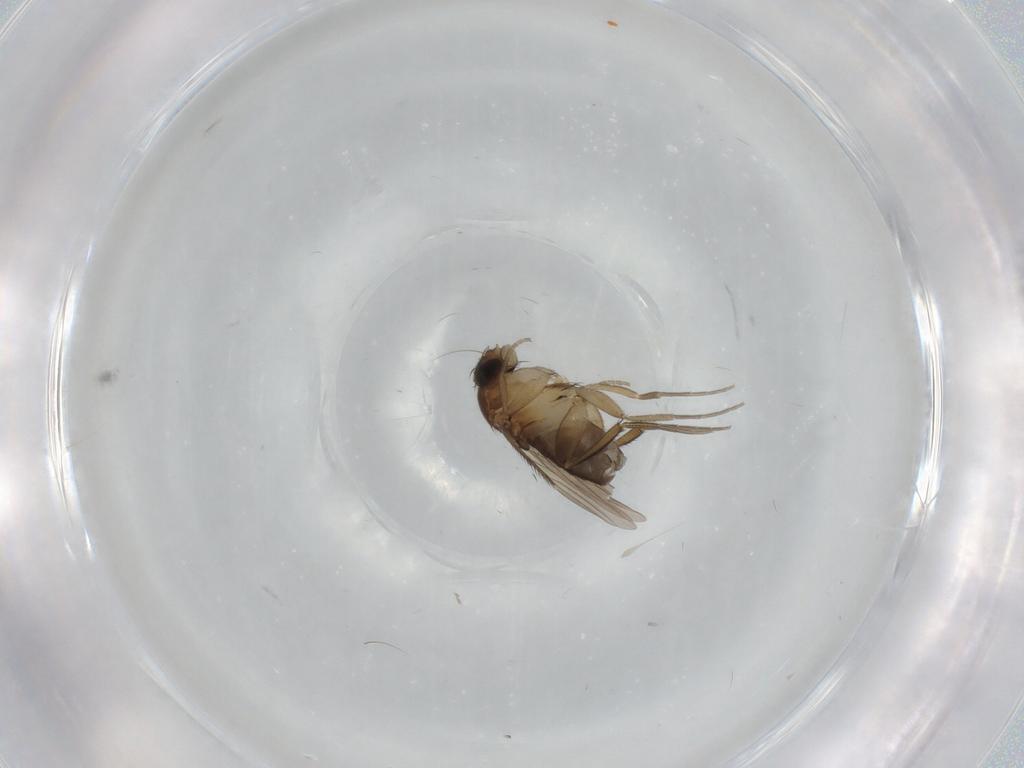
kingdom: Animalia
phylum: Arthropoda
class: Insecta
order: Diptera
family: Phoridae
